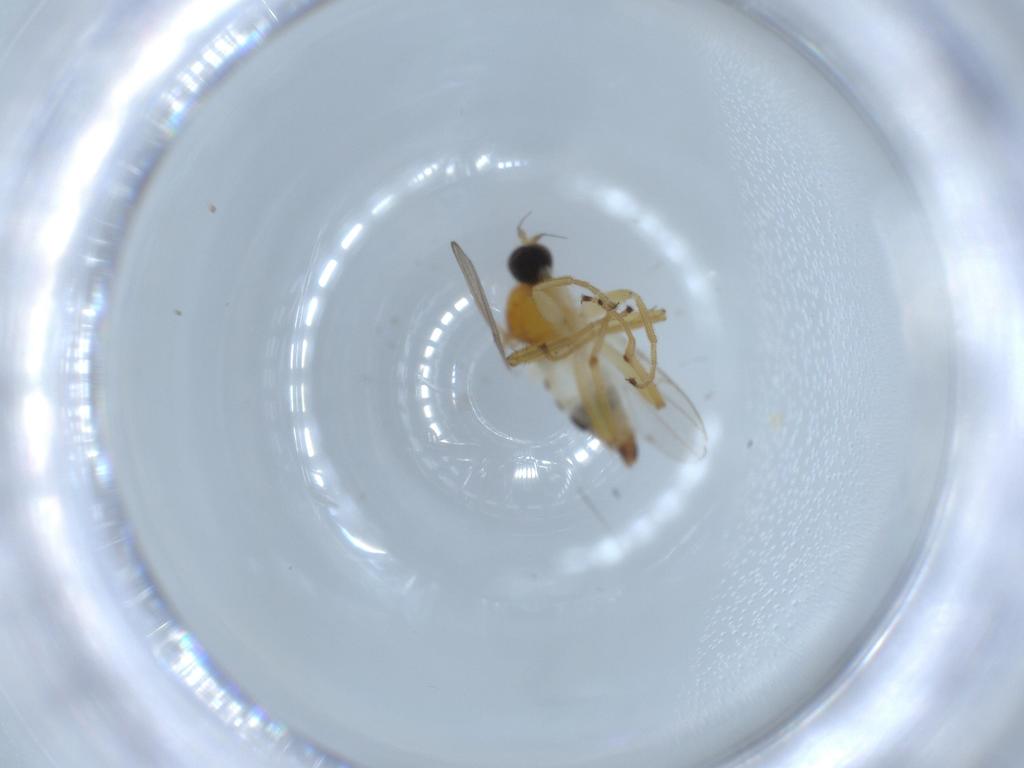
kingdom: Animalia
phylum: Arthropoda
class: Insecta
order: Diptera
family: Hybotidae
